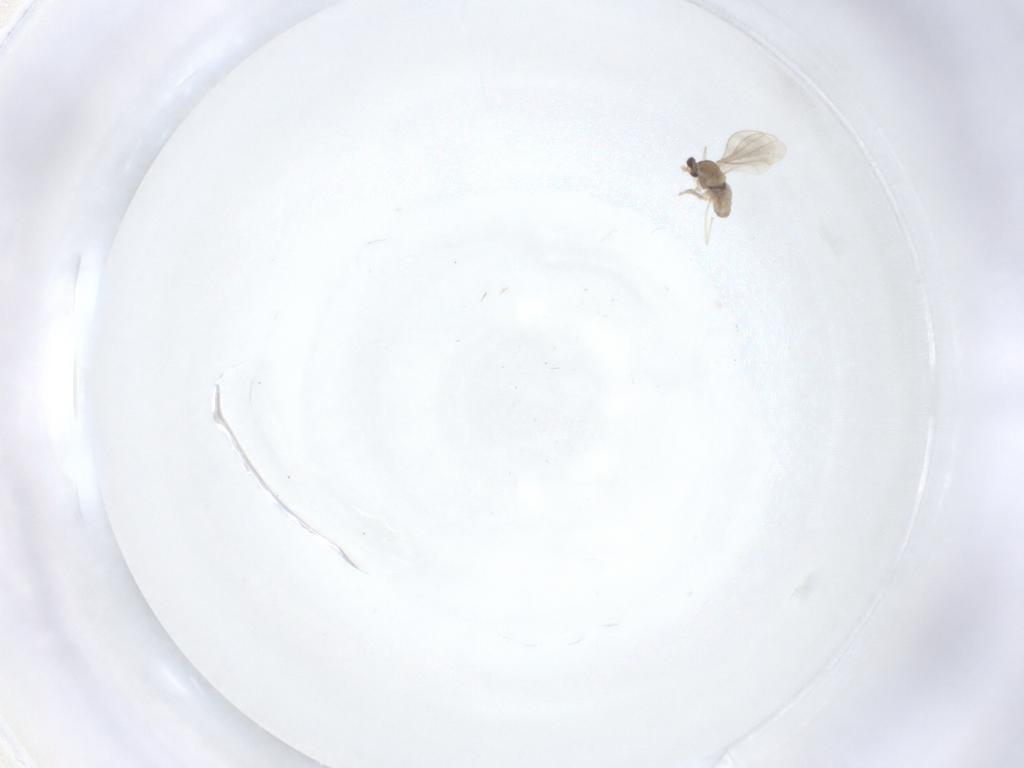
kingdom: Animalia
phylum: Arthropoda
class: Insecta
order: Diptera
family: Cecidomyiidae
